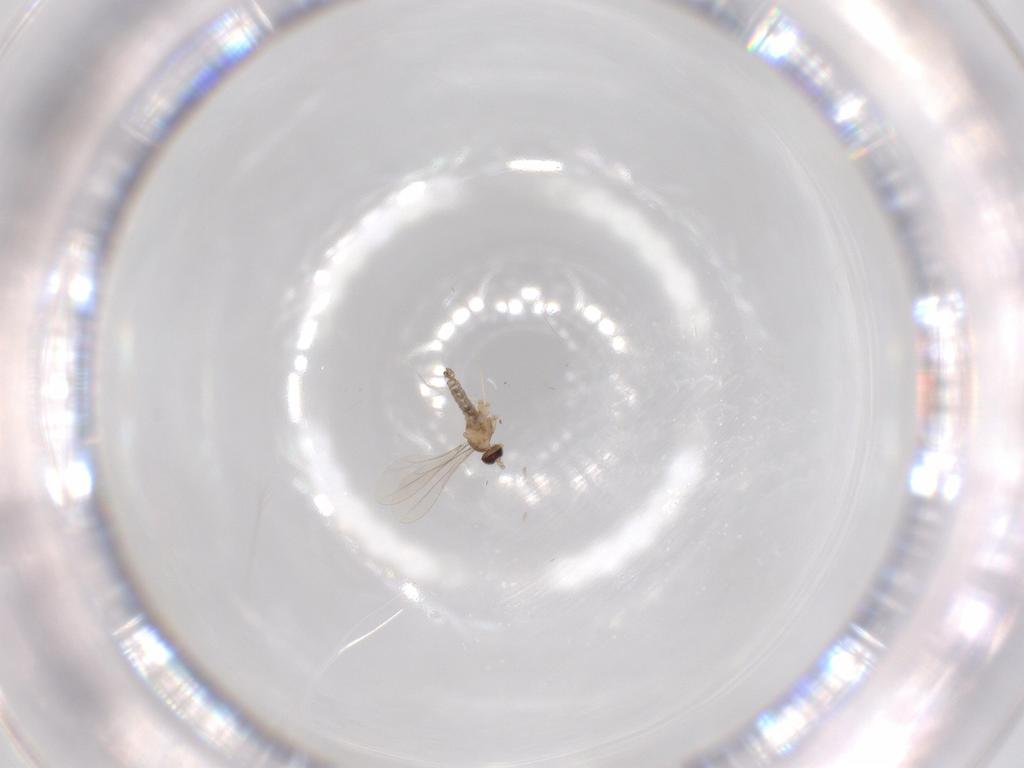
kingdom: Animalia
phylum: Arthropoda
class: Insecta
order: Diptera
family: Cecidomyiidae
